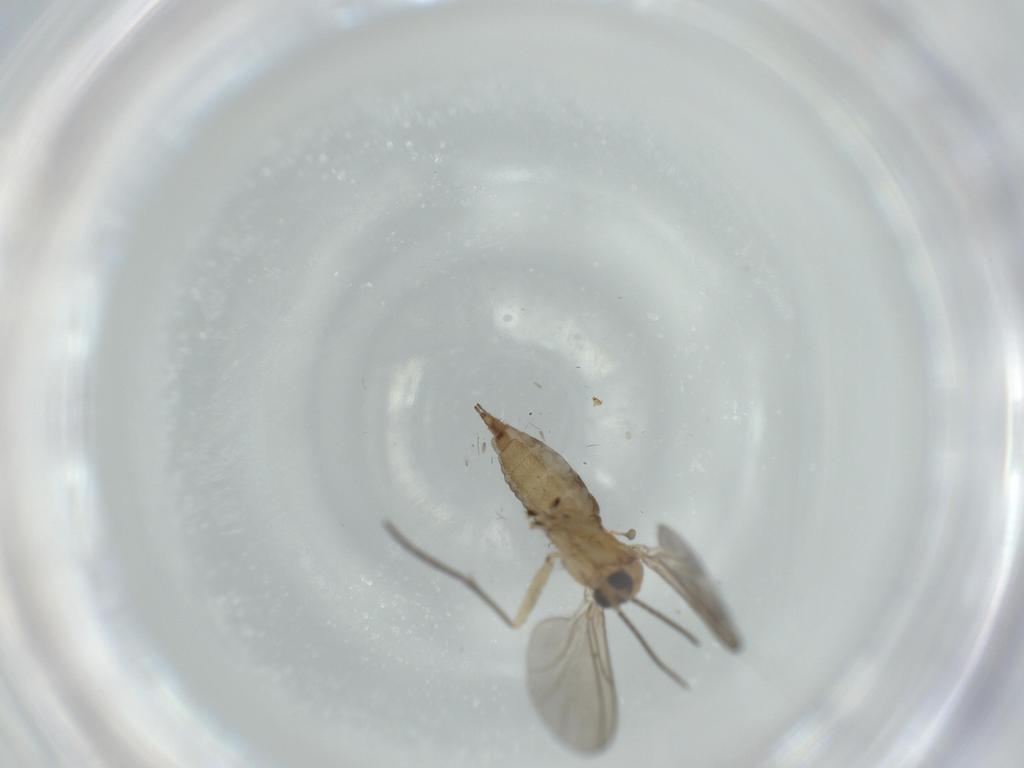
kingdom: Animalia
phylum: Arthropoda
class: Insecta
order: Diptera
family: Sciaridae
